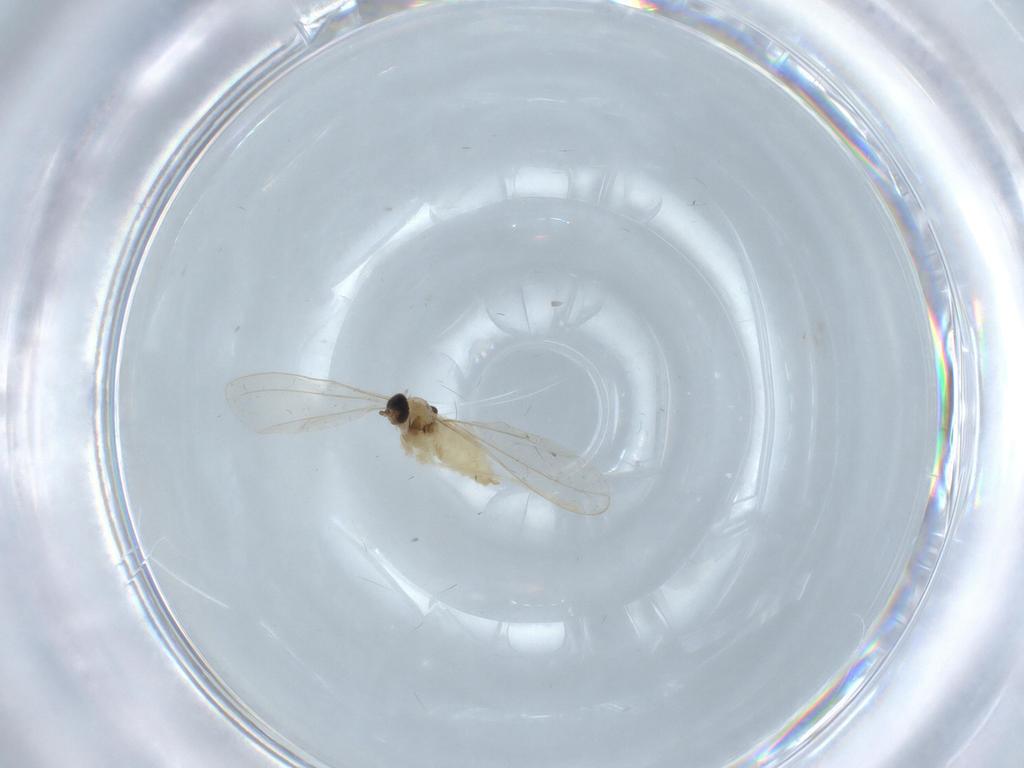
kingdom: Animalia
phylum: Arthropoda
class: Insecta
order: Diptera
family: Cecidomyiidae
